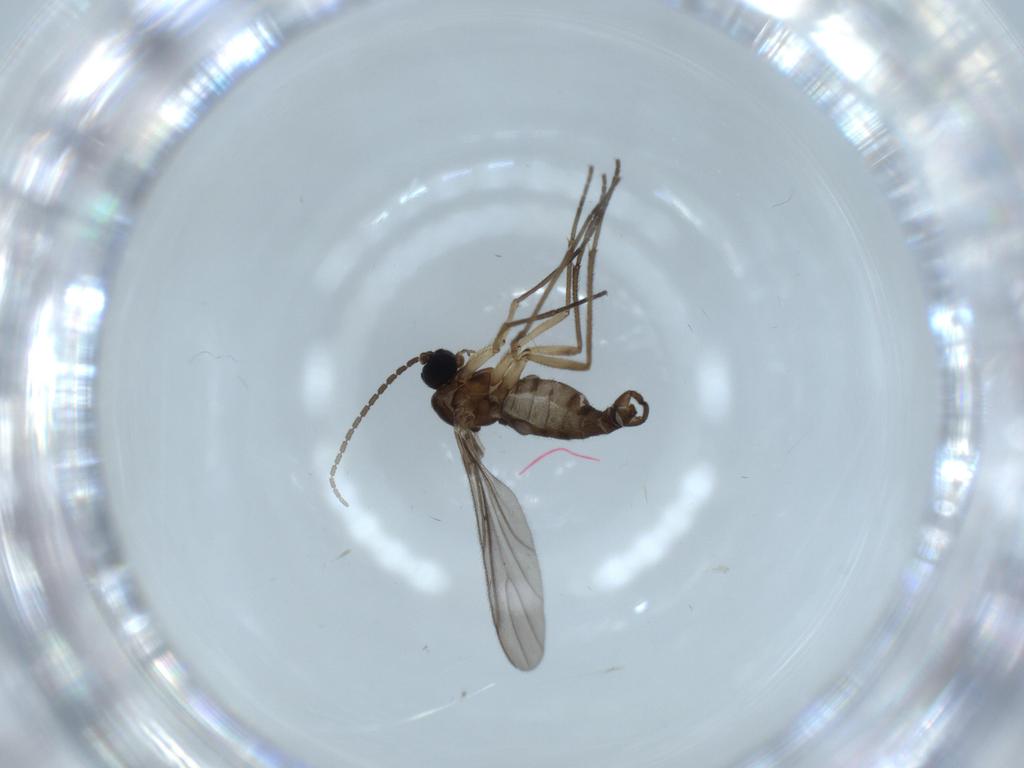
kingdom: Animalia
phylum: Arthropoda
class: Insecta
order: Diptera
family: Sciaridae
